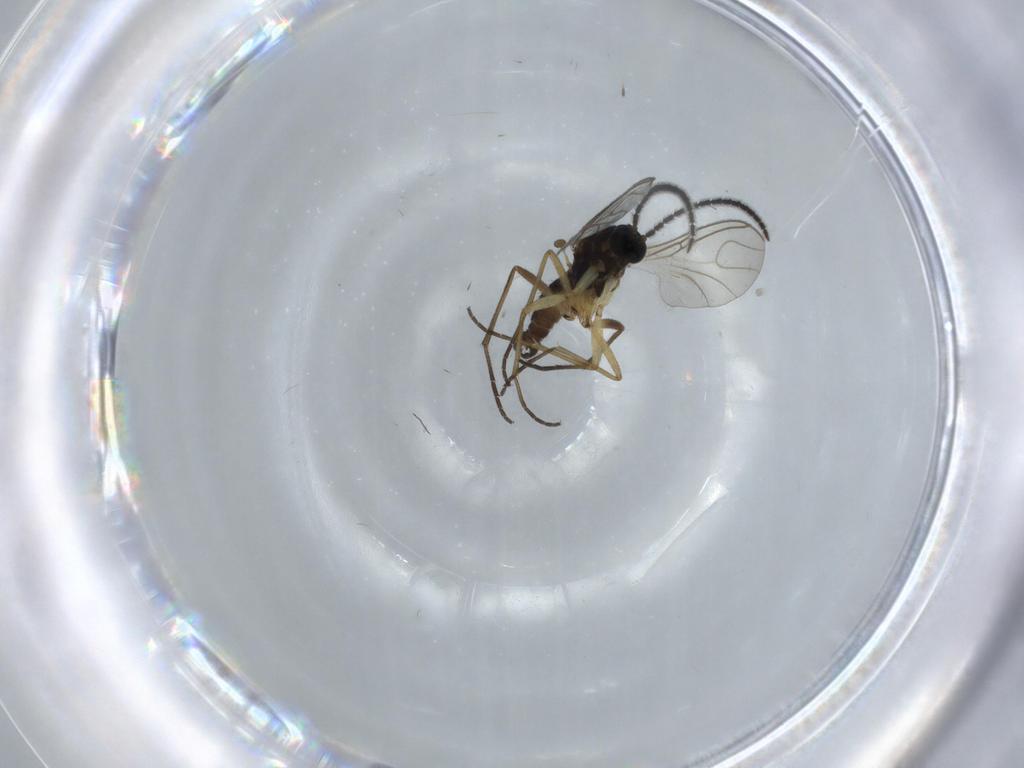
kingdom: Animalia
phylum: Arthropoda
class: Insecta
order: Diptera
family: Sciaridae
